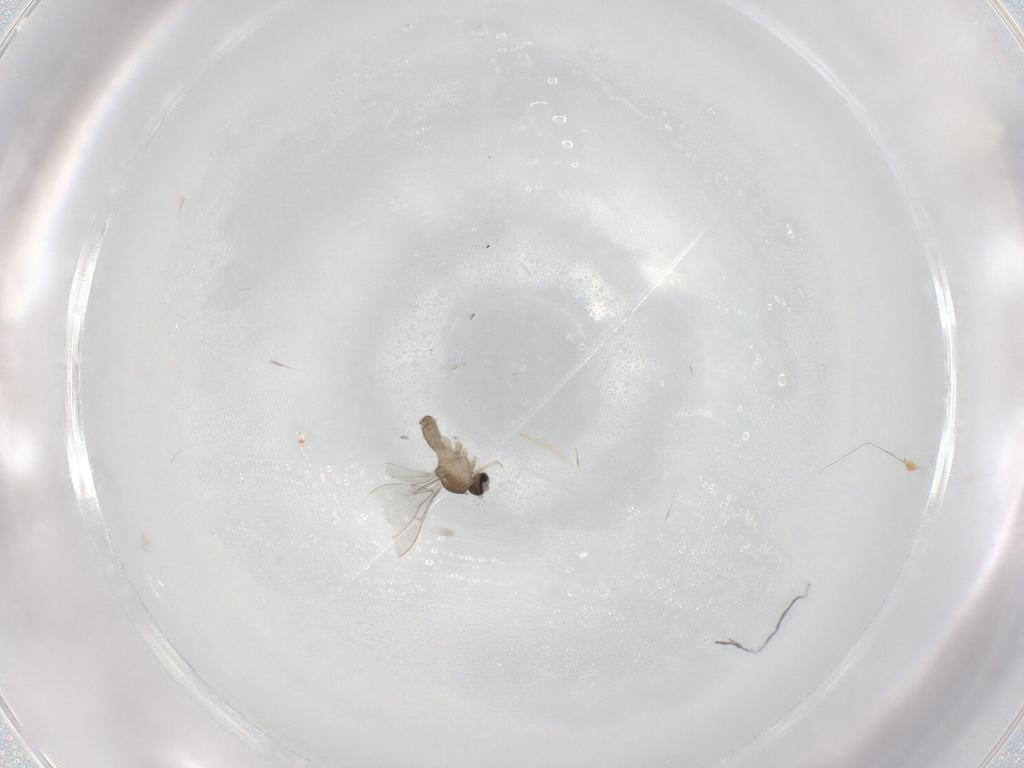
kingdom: Animalia
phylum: Arthropoda
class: Insecta
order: Diptera
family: Cecidomyiidae
